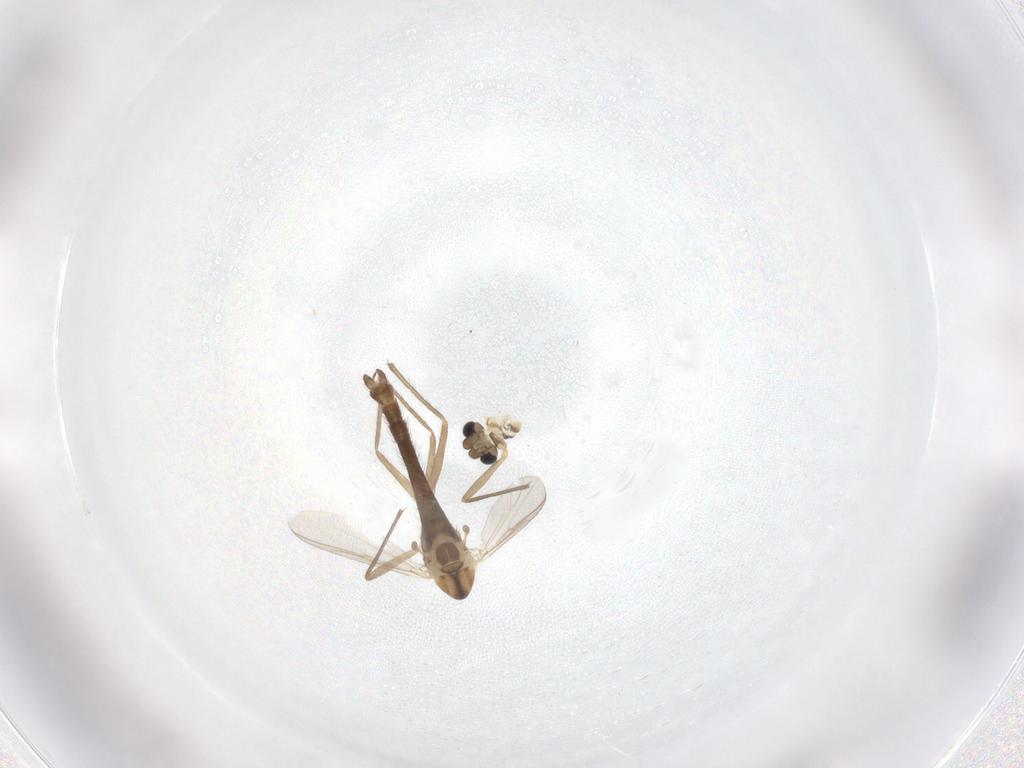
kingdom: Animalia
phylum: Arthropoda
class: Insecta
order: Diptera
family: Chironomidae
